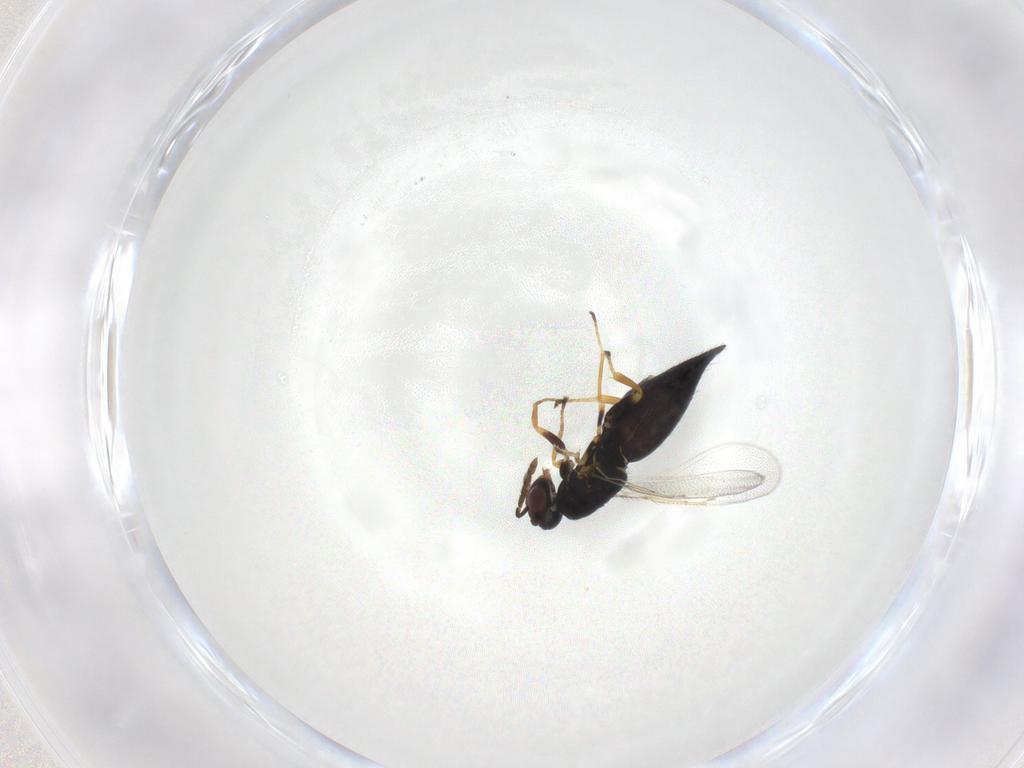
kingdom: Animalia
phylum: Arthropoda
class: Insecta
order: Hymenoptera
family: Eulophidae
